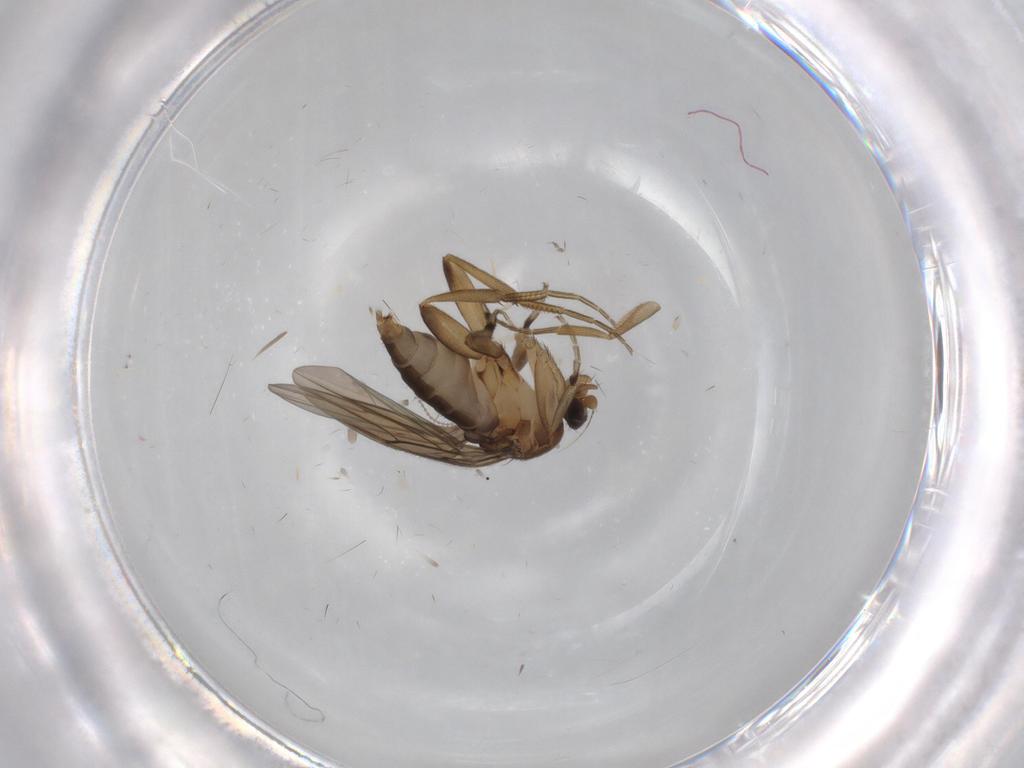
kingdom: Animalia
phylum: Arthropoda
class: Insecta
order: Diptera
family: Phoridae
